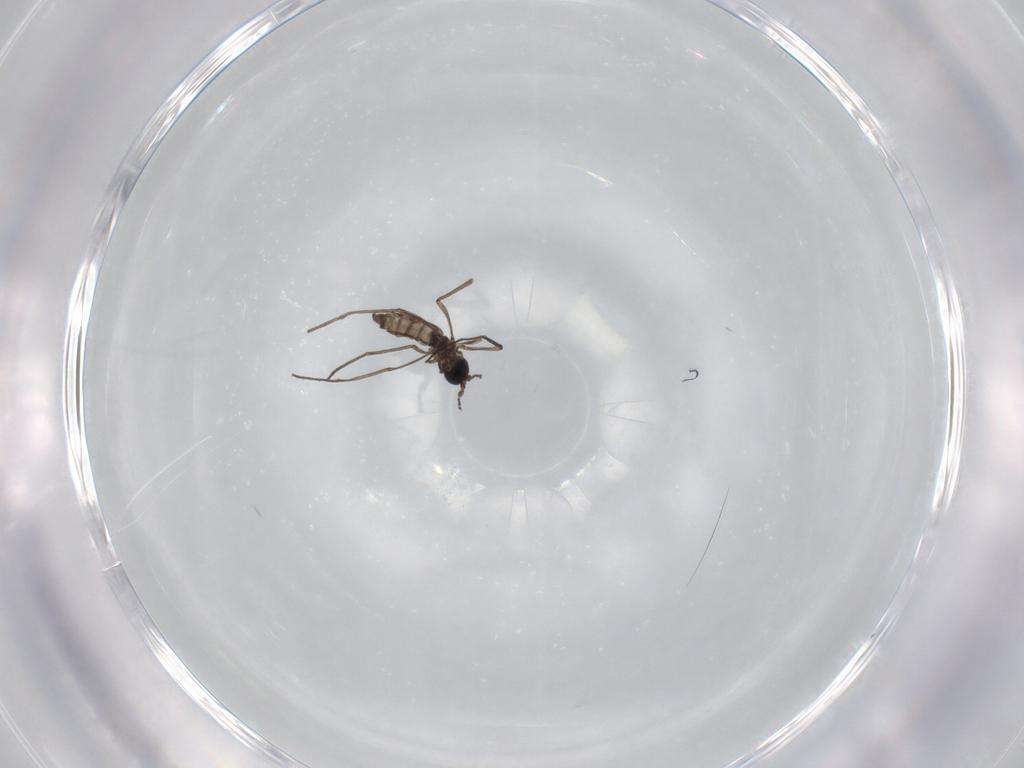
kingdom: Animalia
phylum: Arthropoda
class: Insecta
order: Diptera
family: Sciaridae
